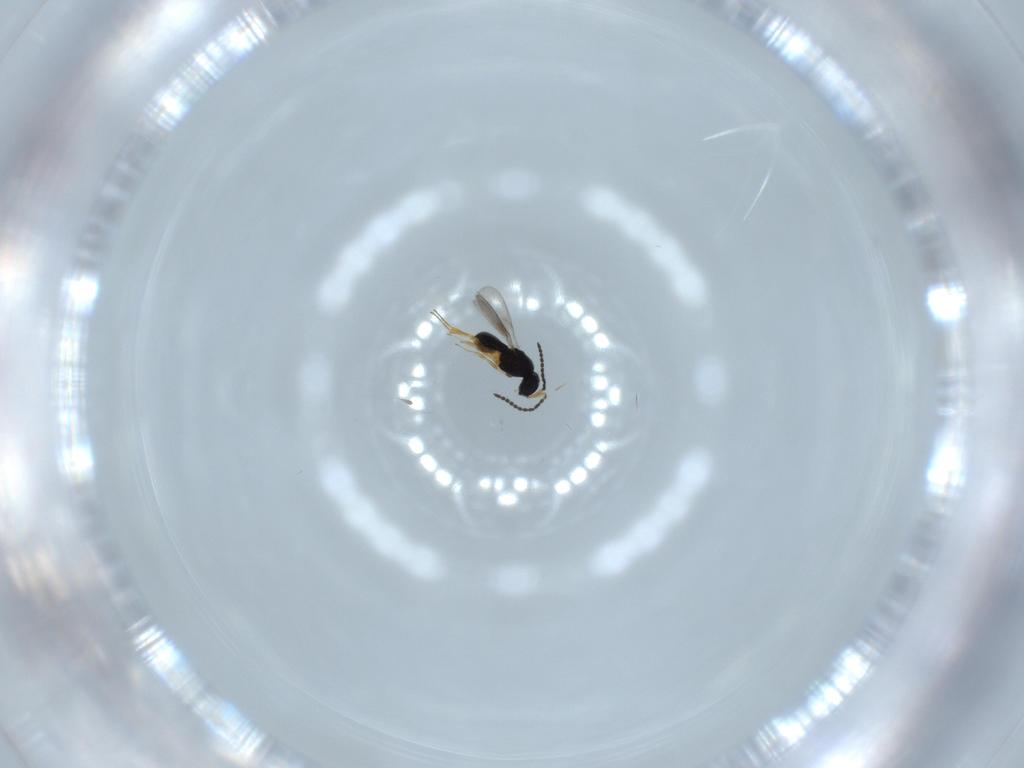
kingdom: Animalia
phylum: Arthropoda
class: Insecta
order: Hymenoptera
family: Scelionidae
